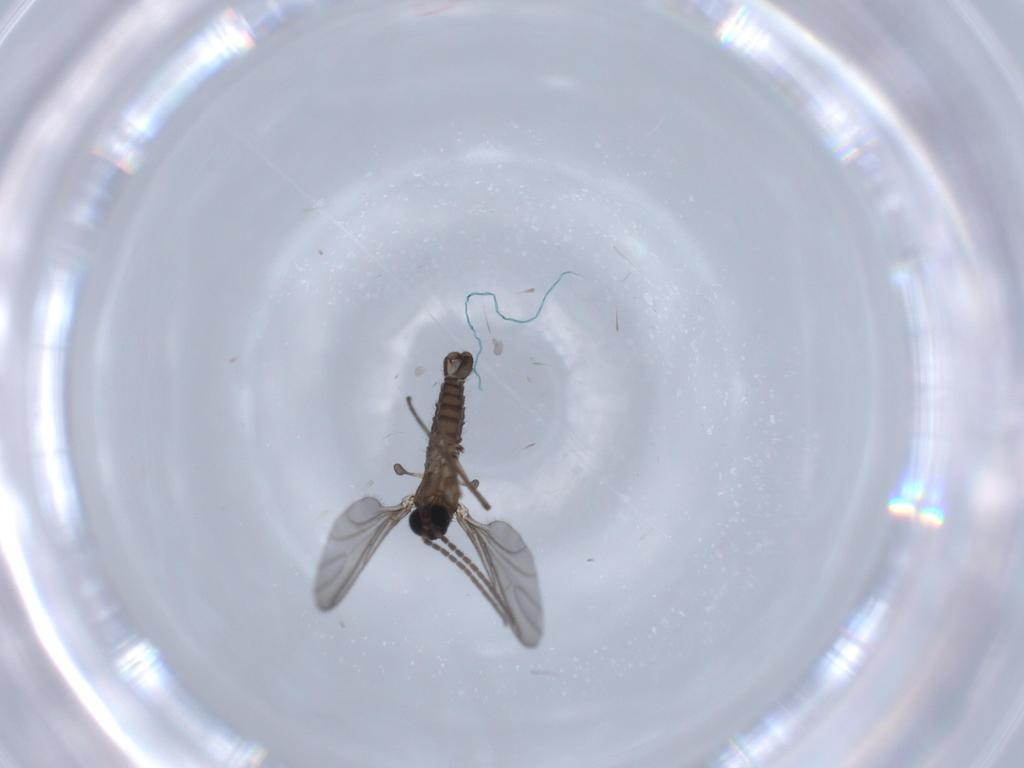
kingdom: Animalia
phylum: Arthropoda
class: Insecta
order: Diptera
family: Sciaridae
